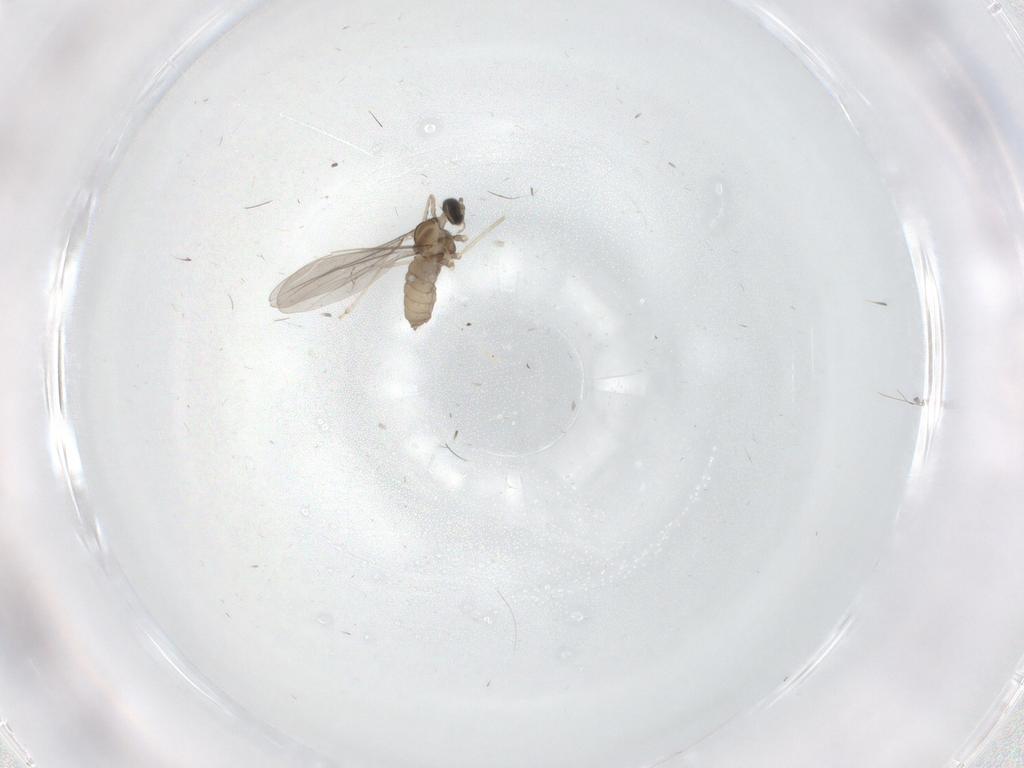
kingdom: Animalia
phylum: Arthropoda
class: Insecta
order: Diptera
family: Cecidomyiidae
